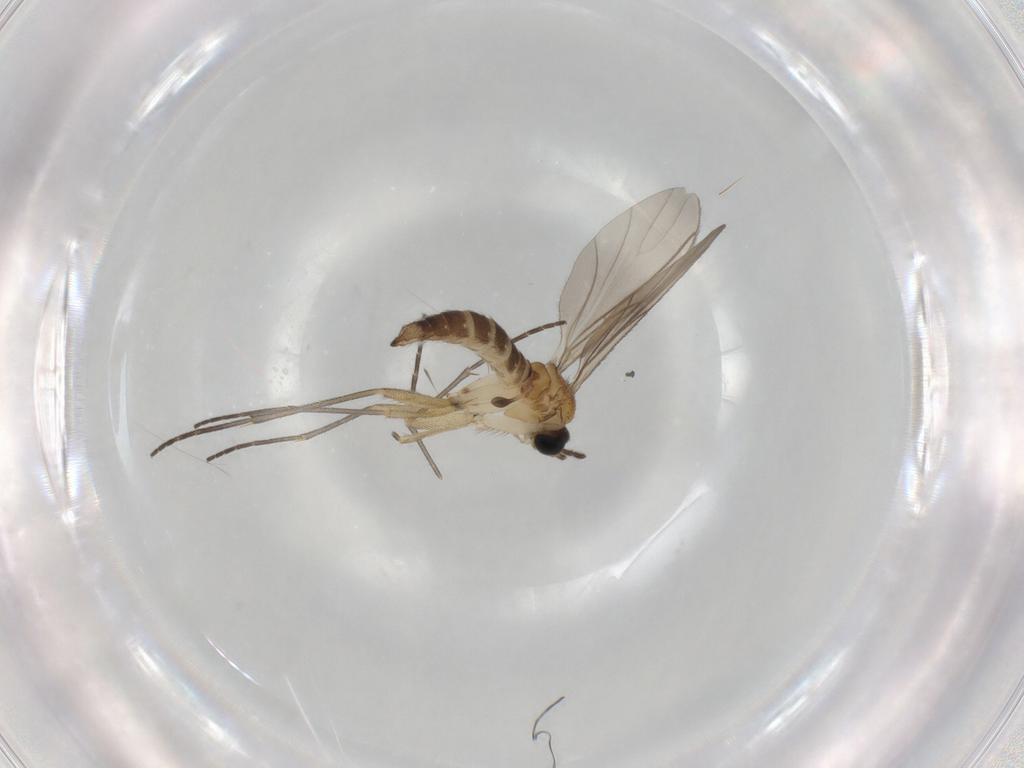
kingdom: Animalia
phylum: Arthropoda
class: Insecta
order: Diptera
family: Sciaridae
